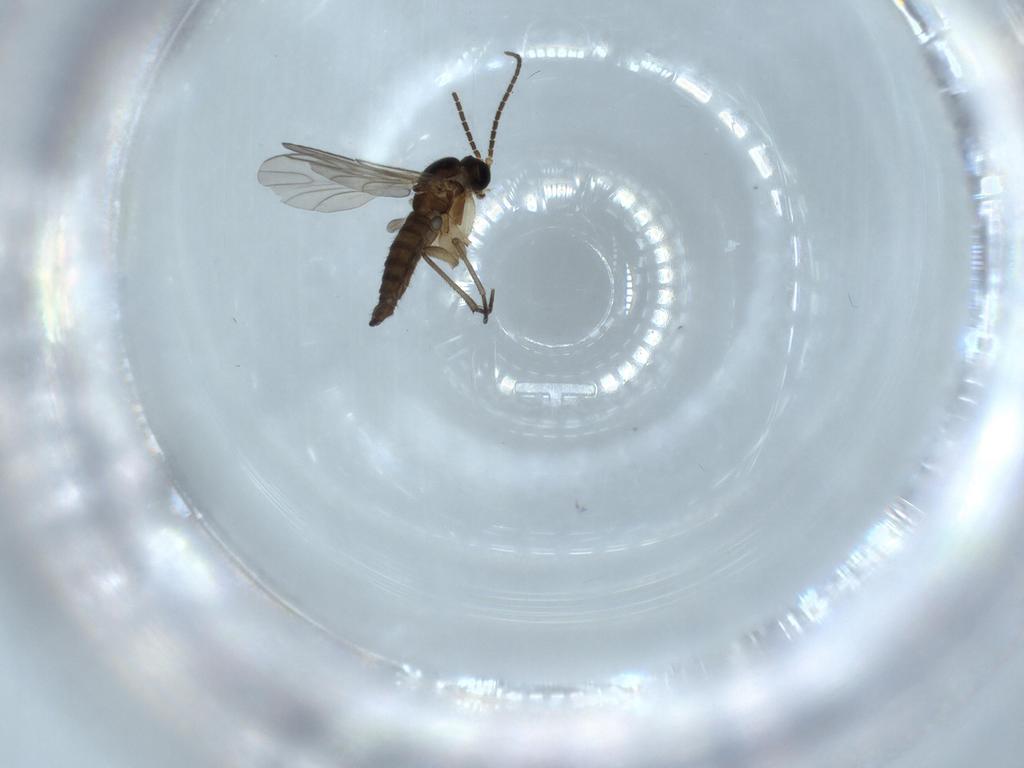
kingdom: Animalia
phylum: Arthropoda
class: Insecta
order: Diptera
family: Sciaridae
